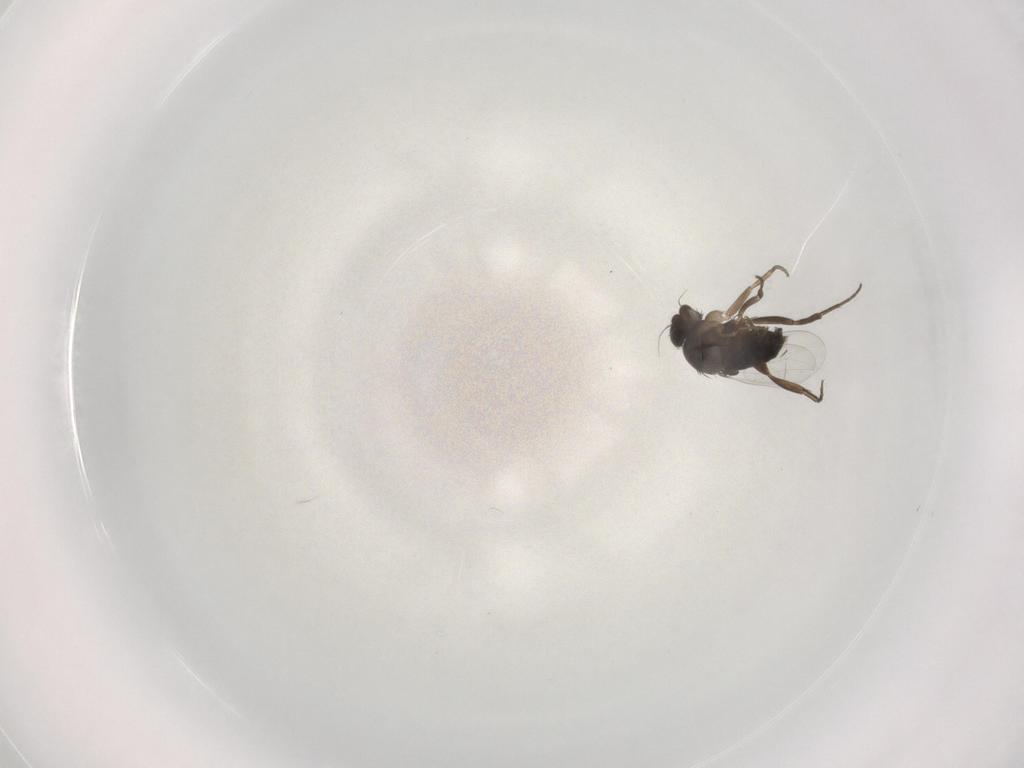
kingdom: Animalia
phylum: Arthropoda
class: Insecta
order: Diptera
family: Phoridae
